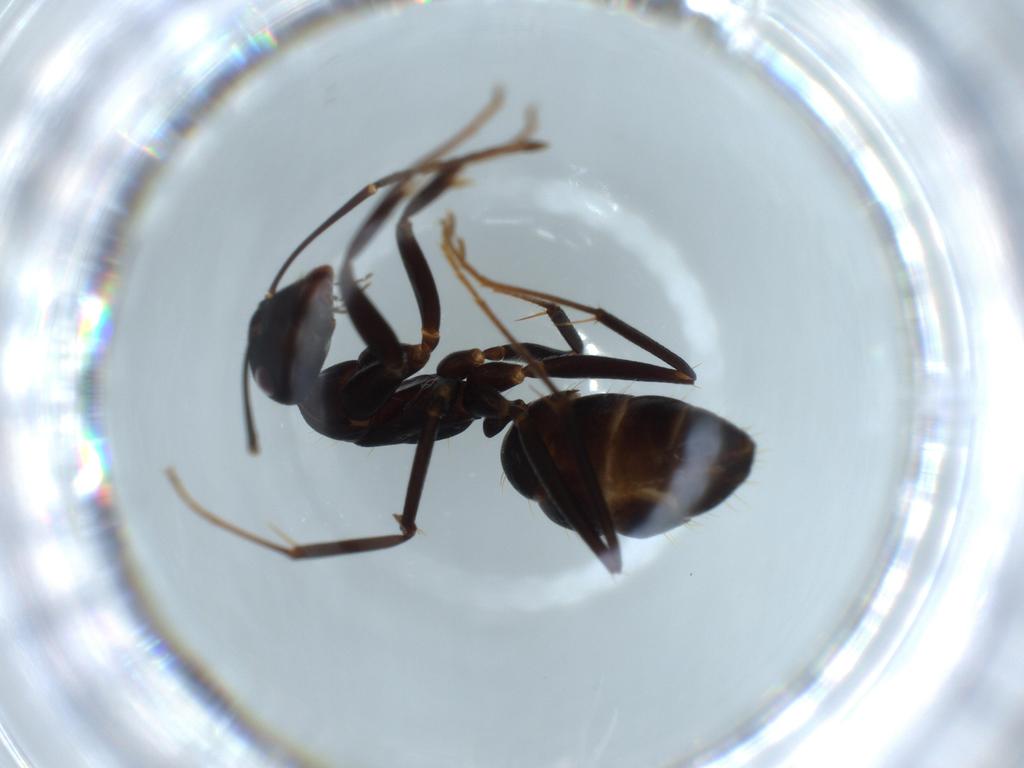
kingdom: Animalia
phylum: Arthropoda
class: Insecta
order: Hymenoptera
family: Formicidae
